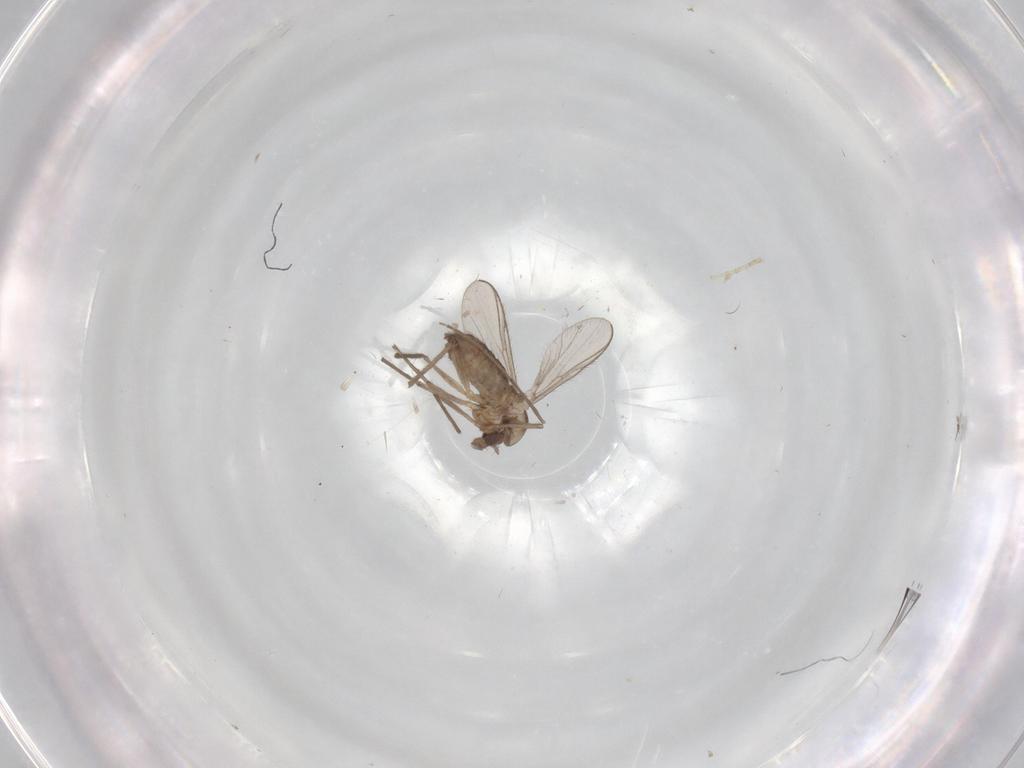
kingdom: Animalia
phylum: Arthropoda
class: Insecta
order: Diptera
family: Chironomidae
